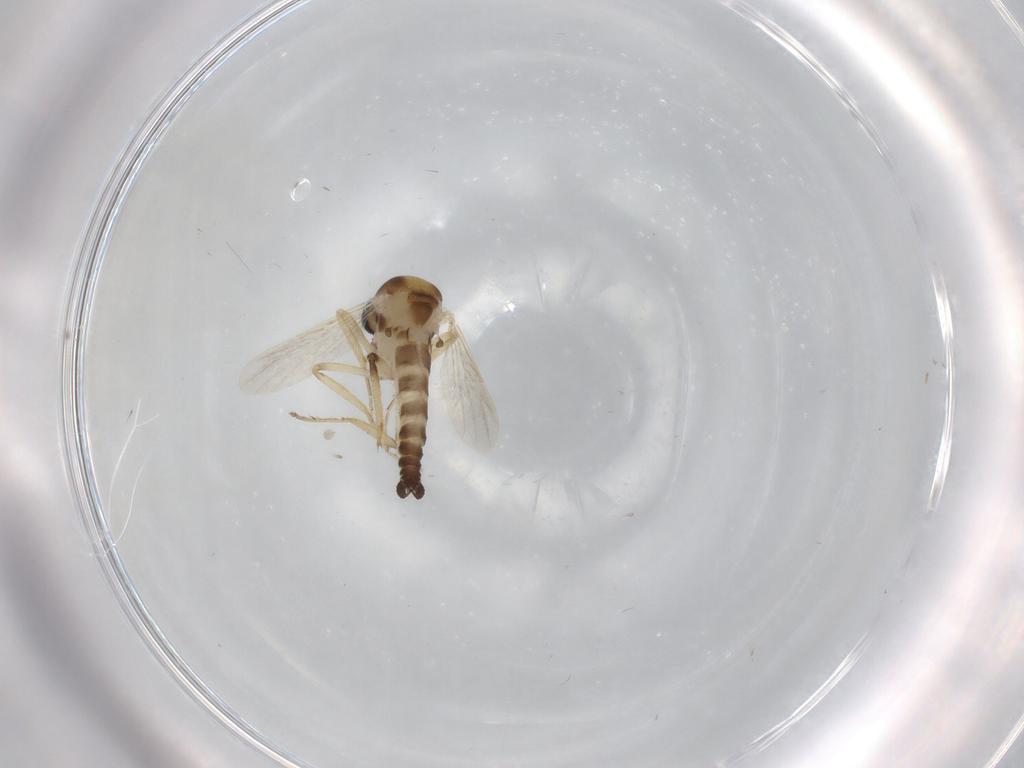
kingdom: Animalia
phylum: Arthropoda
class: Insecta
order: Diptera
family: Ceratopogonidae
